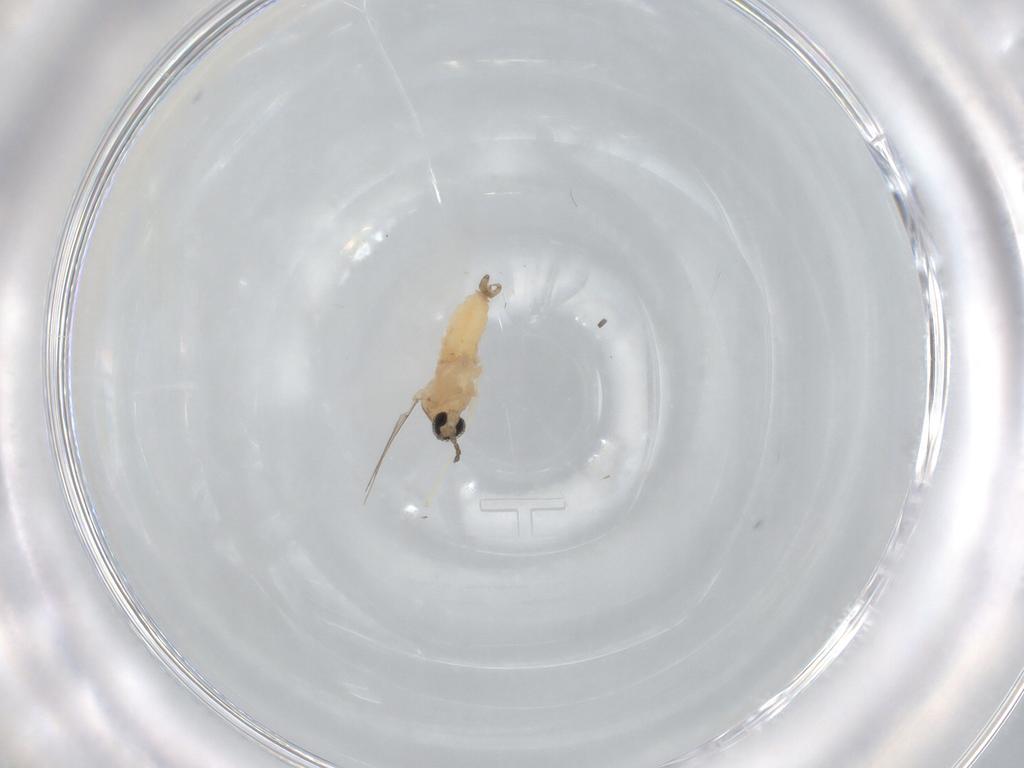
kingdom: Animalia
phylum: Arthropoda
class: Insecta
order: Diptera
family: Cecidomyiidae
